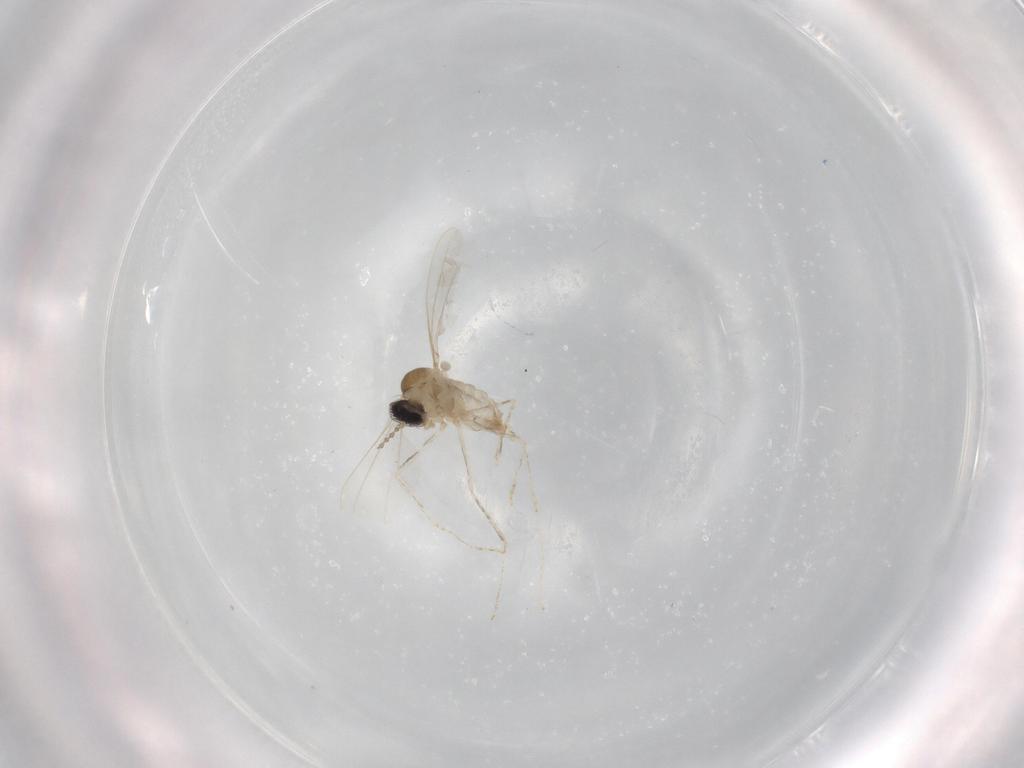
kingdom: Animalia
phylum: Arthropoda
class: Insecta
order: Diptera
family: Cecidomyiidae
